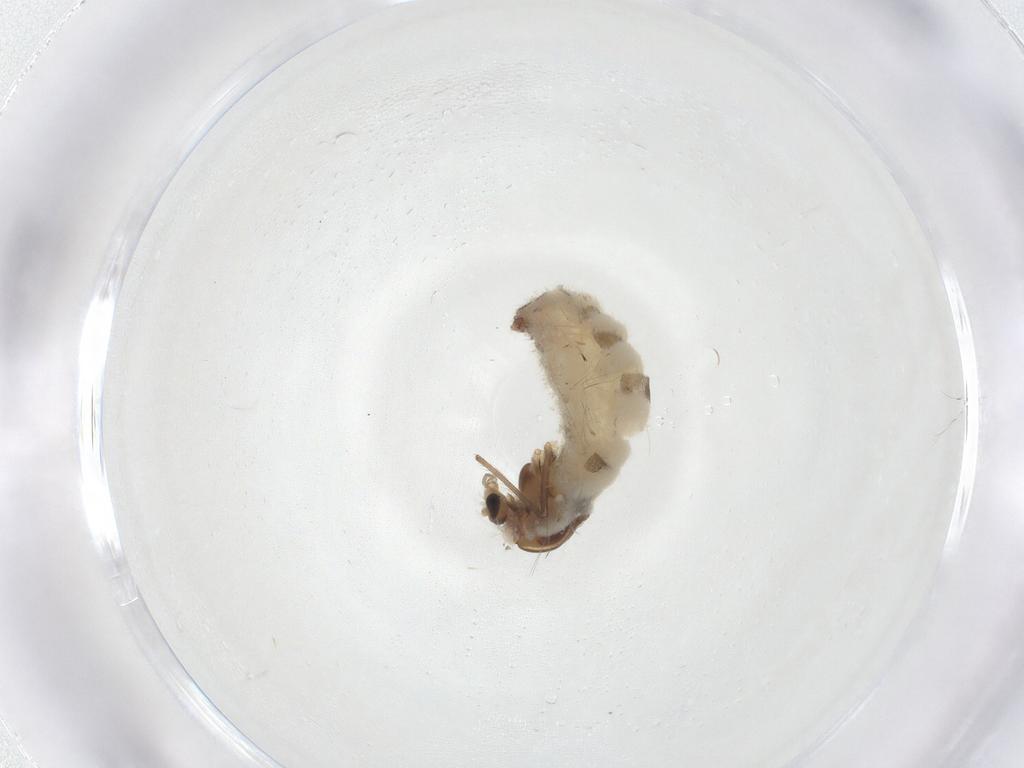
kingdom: Animalia
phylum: Arthropoda
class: Insecta
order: Diptera
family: Chironomidae
